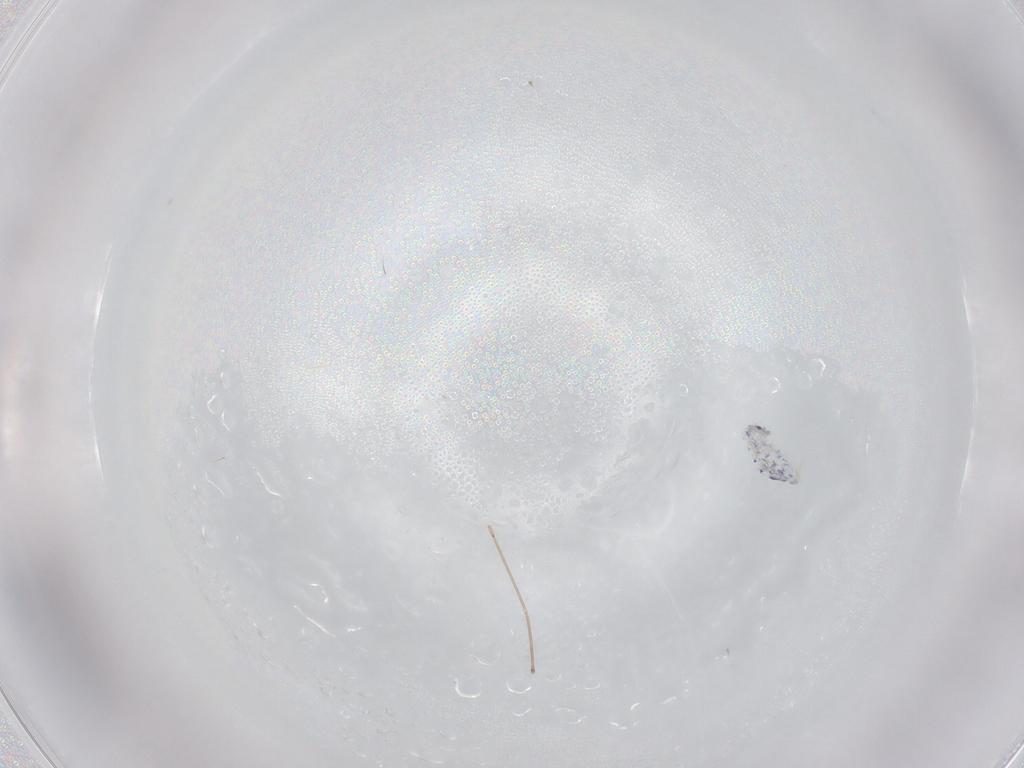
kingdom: Animalia
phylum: Arthropoda
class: Collembola
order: Entomobryomorpha
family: Entomobryidae
